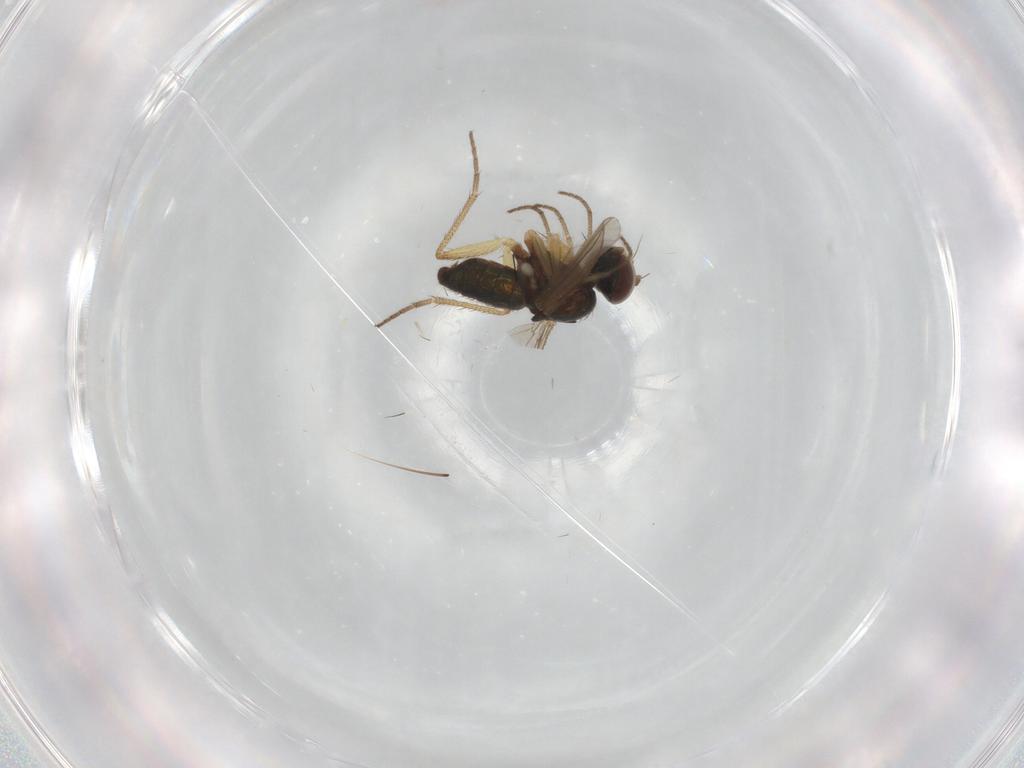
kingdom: Animalia
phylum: Arthropoda
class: Insecta
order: Diptera
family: Dolichopodidae
